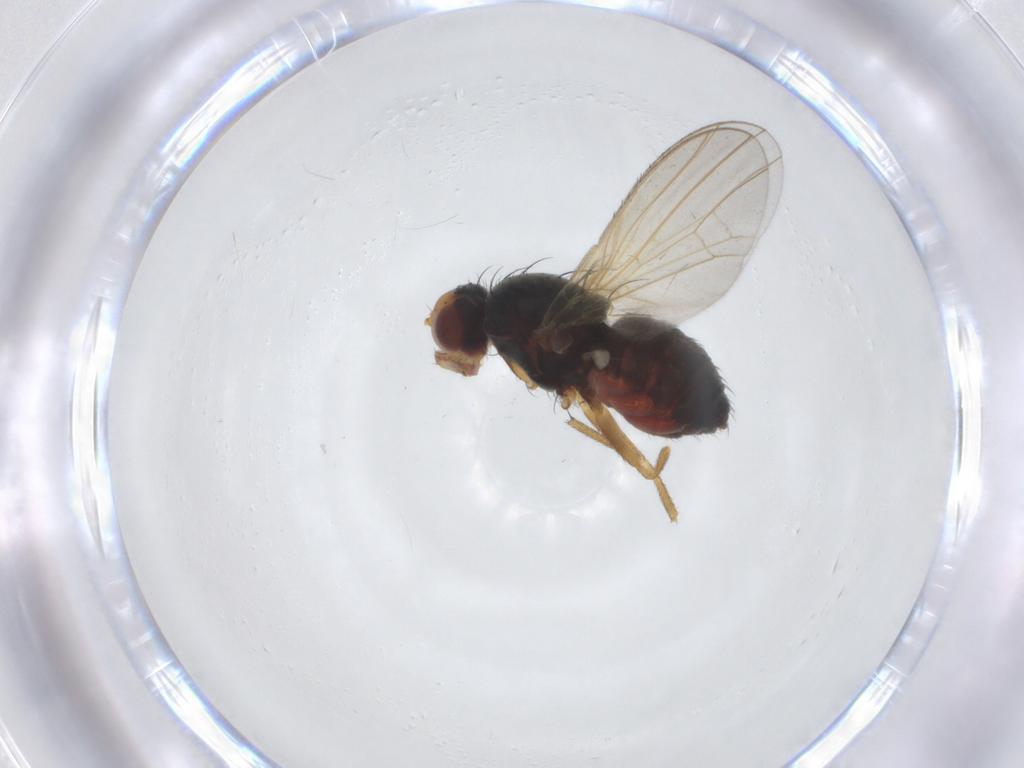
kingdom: Animalia
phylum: Arthropoda
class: Insecta
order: Diptera
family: Heleomyzidae
